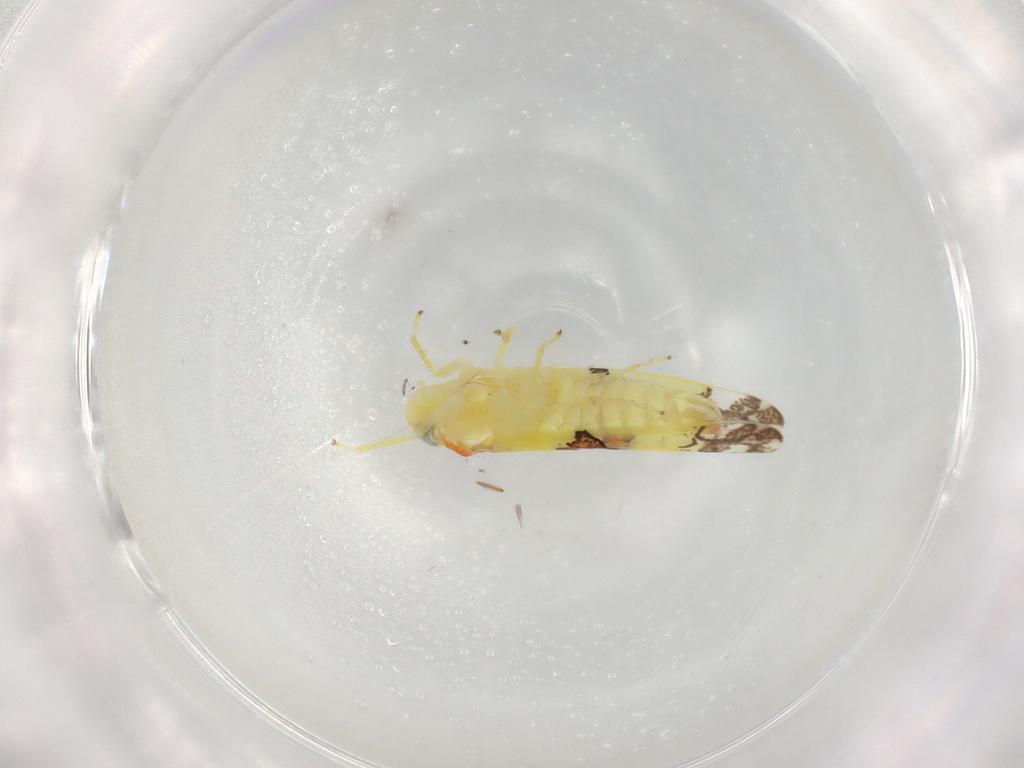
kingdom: Animalia
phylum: Arthropoda
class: Insecta
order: Hemiptera
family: Cicadellidae
